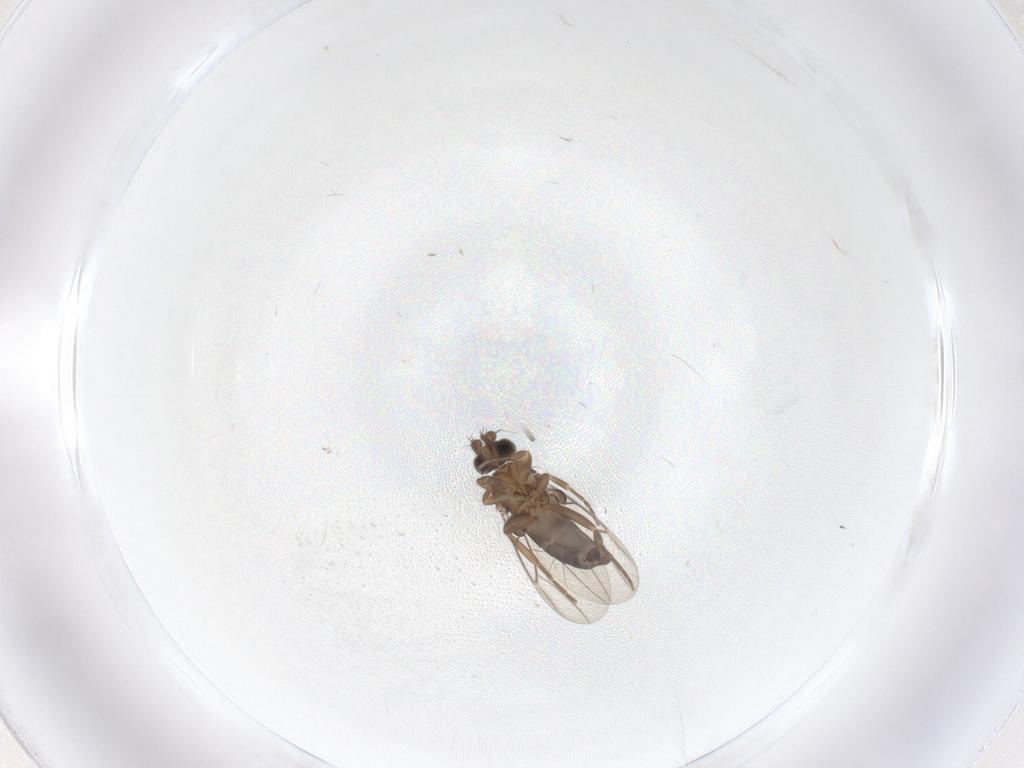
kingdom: Animalia
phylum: Arthropoda
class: Insecta
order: Diptera
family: Phoridae
